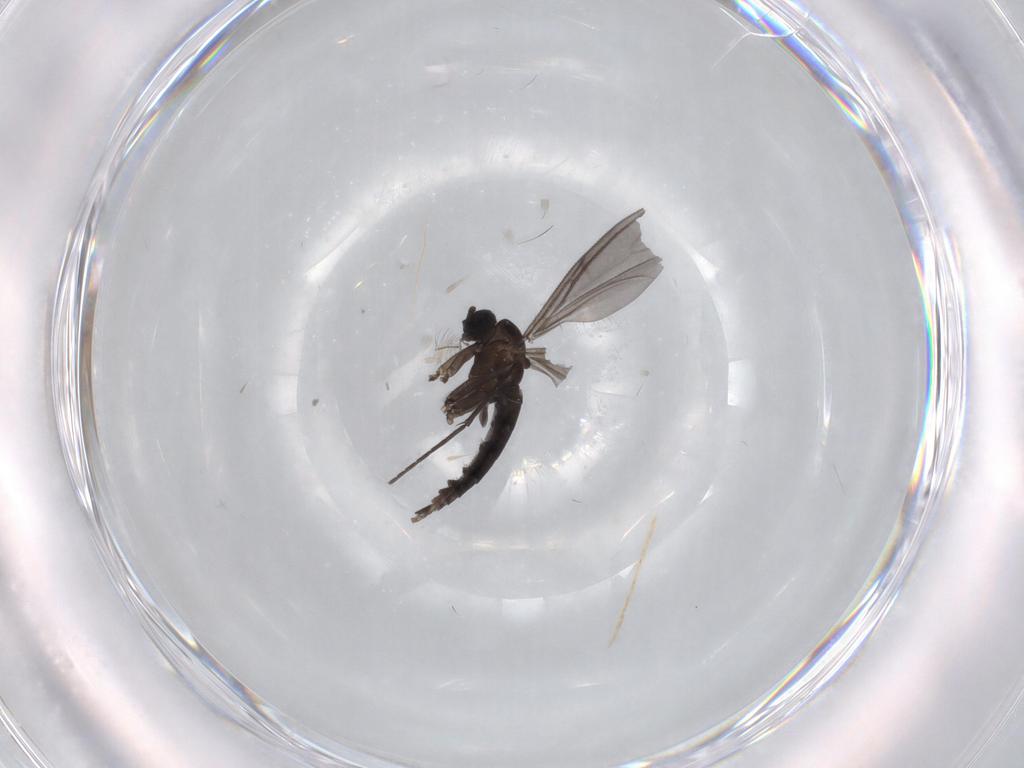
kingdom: Animalia
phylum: Arthropoda
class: Insecta
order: Diptera
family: Sciaridae
